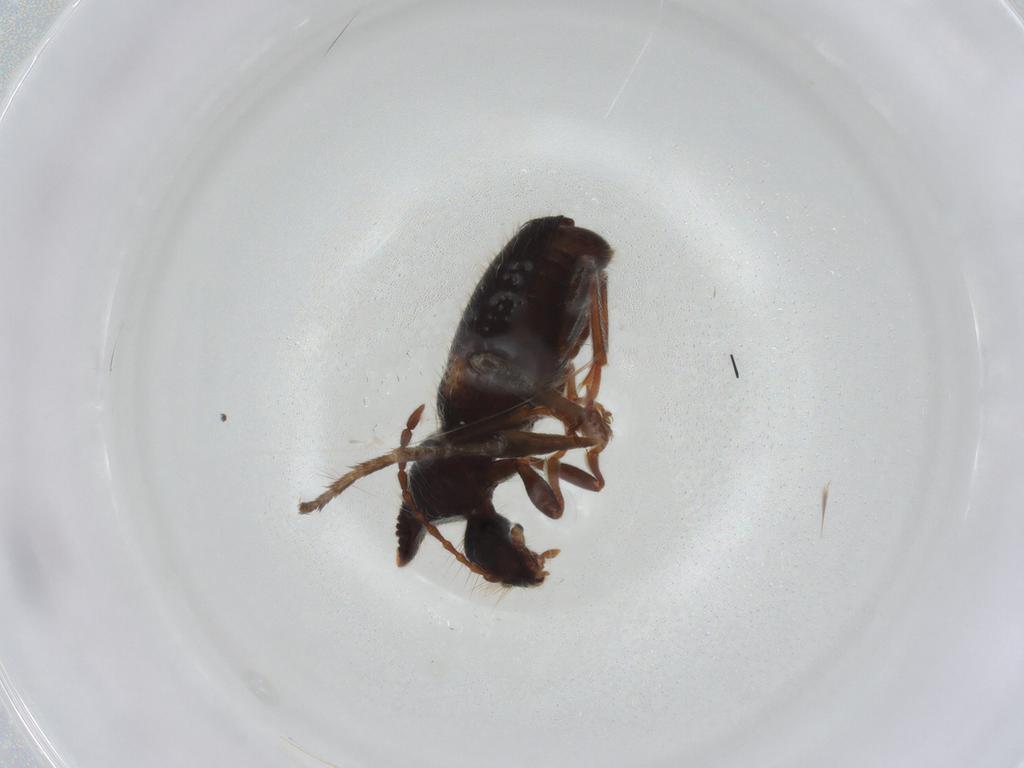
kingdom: Animalia
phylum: Arthropoda
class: Insecta
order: Coleoptera
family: Anthicidae
